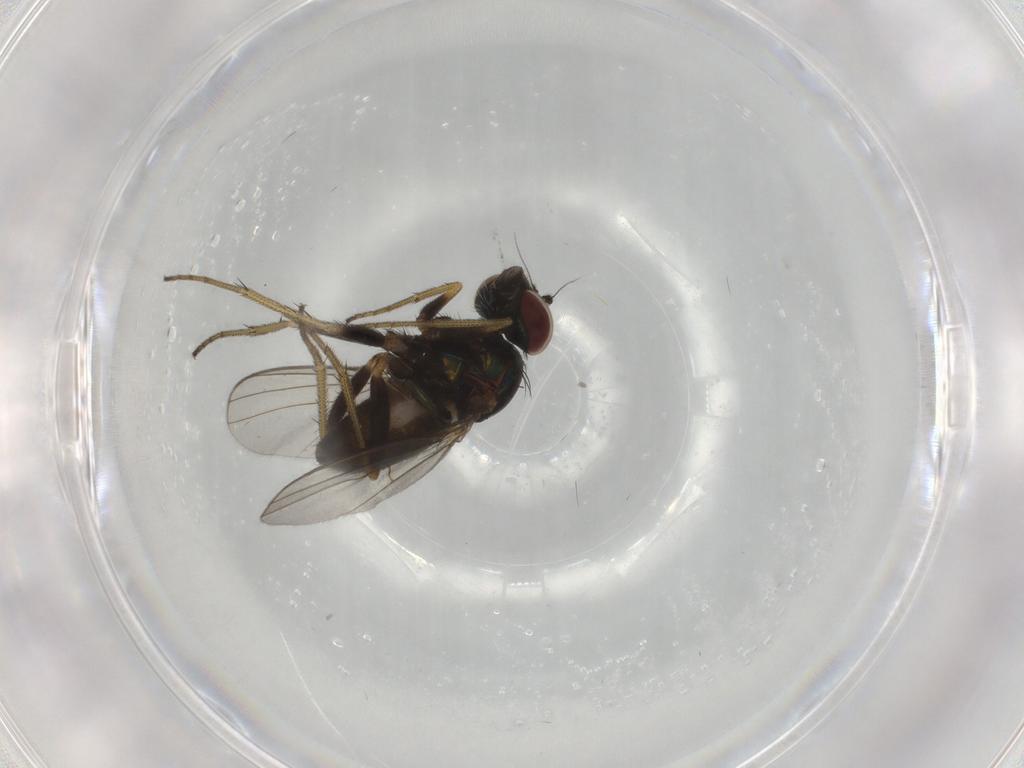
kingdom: Animalia
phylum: Arthropoda
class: Insecta
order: Diptera
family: Dolichopodidae
